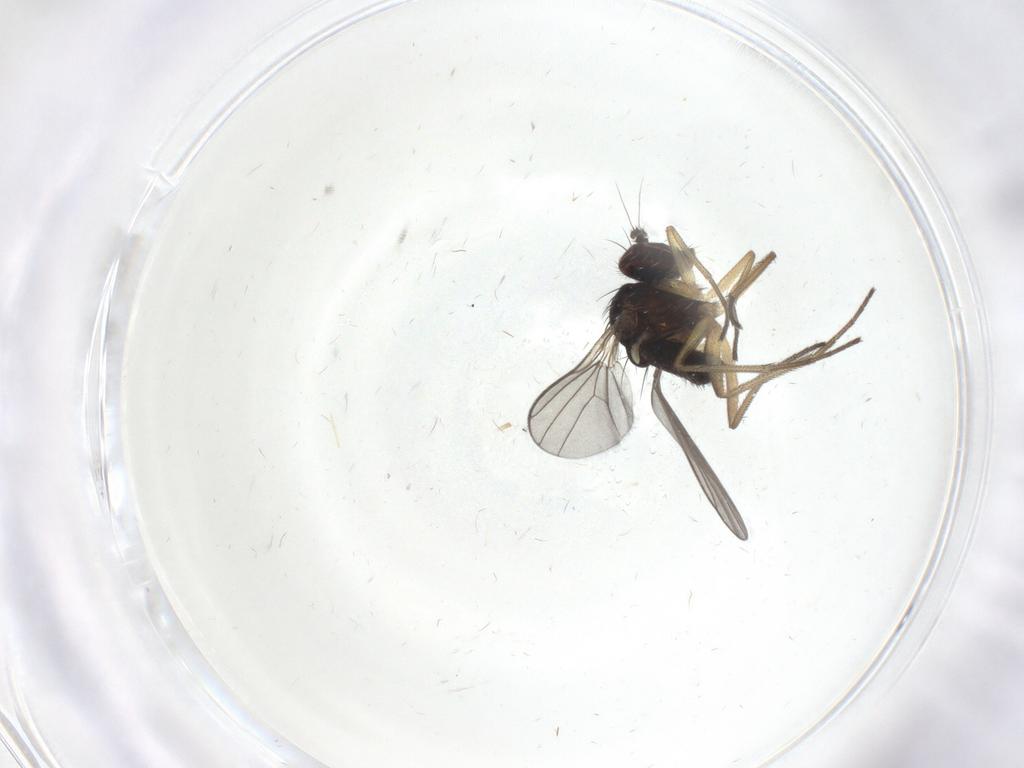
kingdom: Animalia
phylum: Arthropoda
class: Insecta
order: Diptera
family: Dolichopodidae
